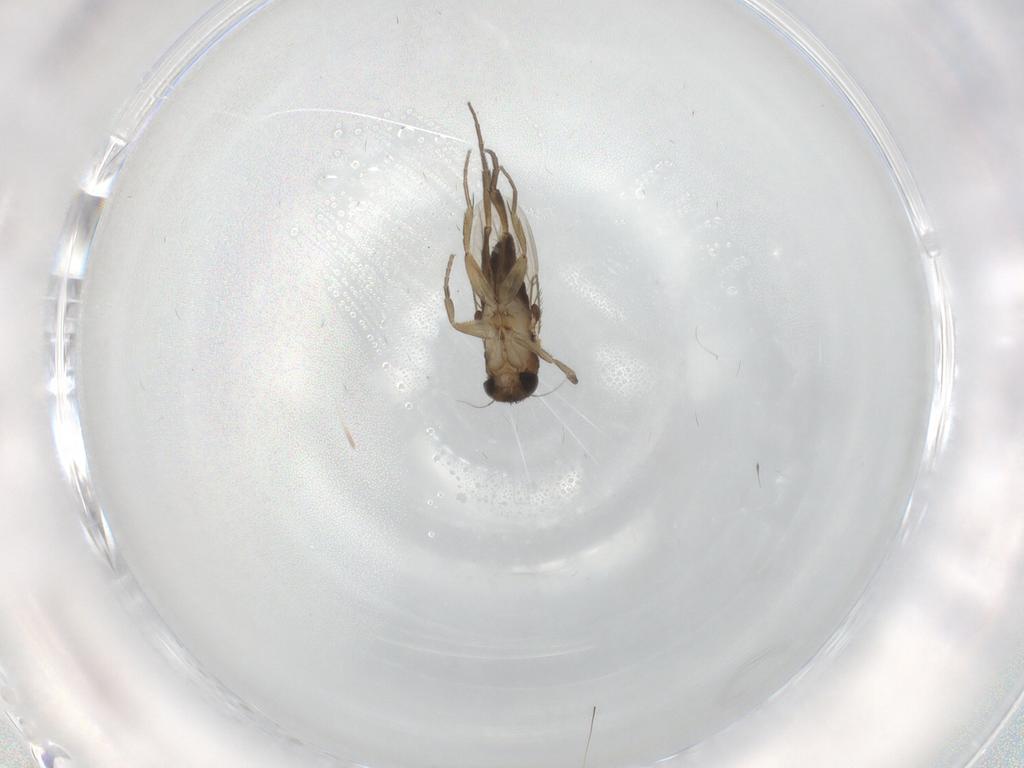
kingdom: Animalia
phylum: Arthropoda
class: Insecta
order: Diptera
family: Phoridae
